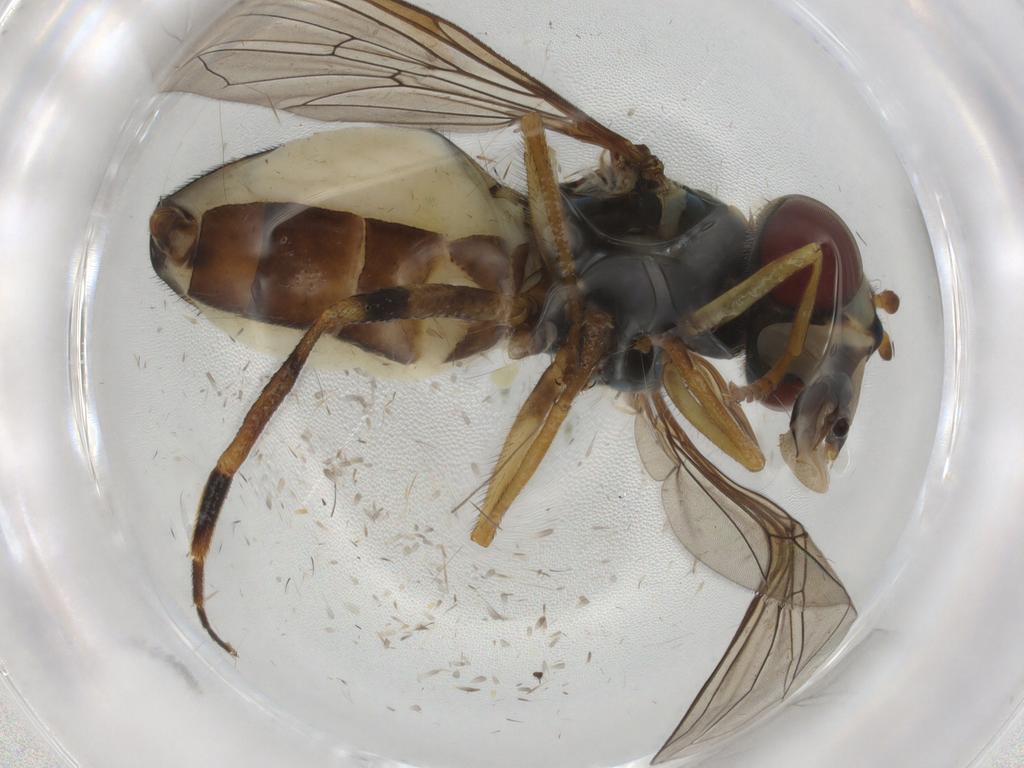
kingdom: Animalia
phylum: Arthropoda
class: Insecta
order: Diptera
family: Syrphidae
